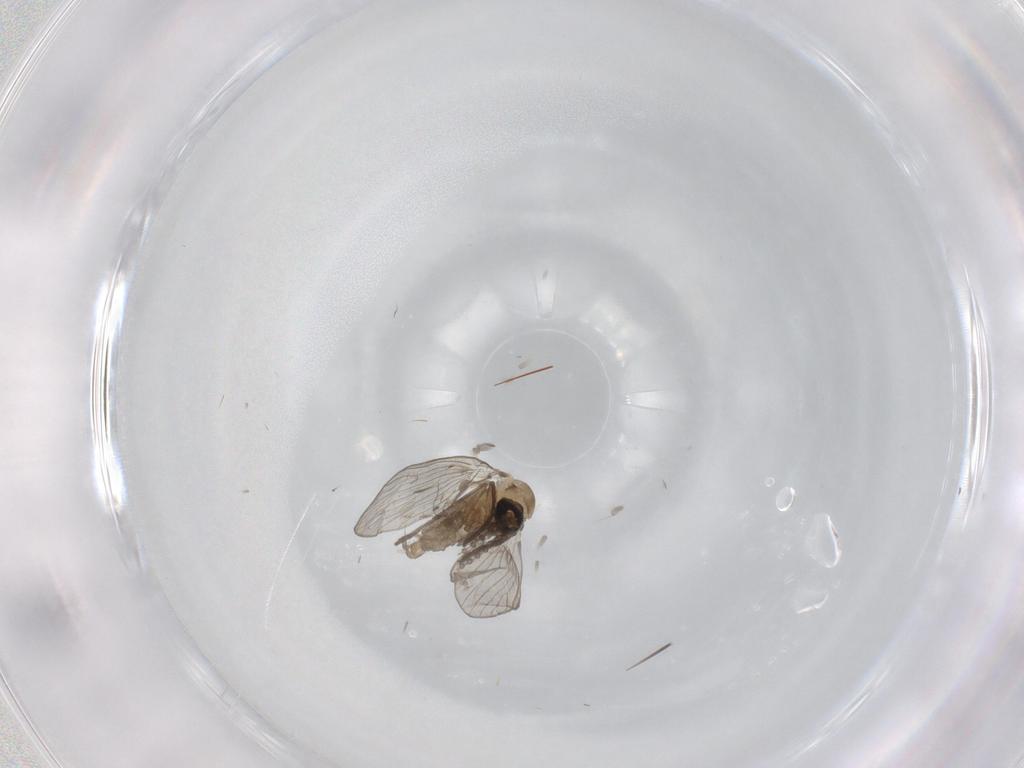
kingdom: Animalia
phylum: Arthropoda
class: Insecta
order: Diptera
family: Psychodidae
